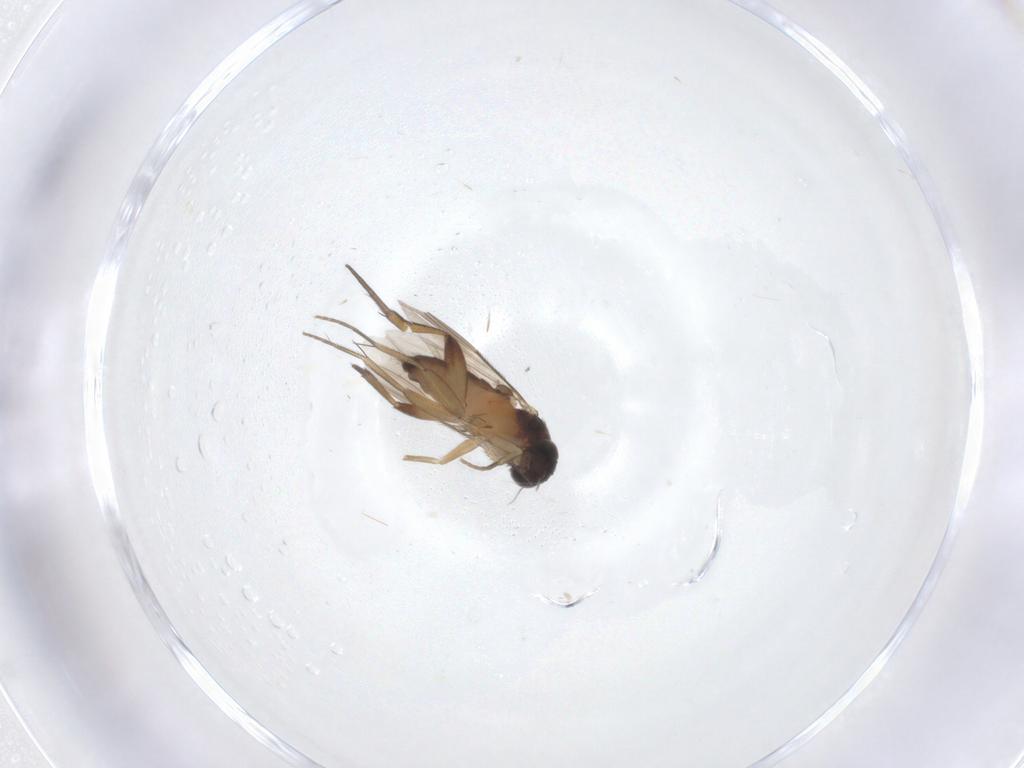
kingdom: Animalia
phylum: Arthropoda
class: Insecta
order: Diptera
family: Phoridae
